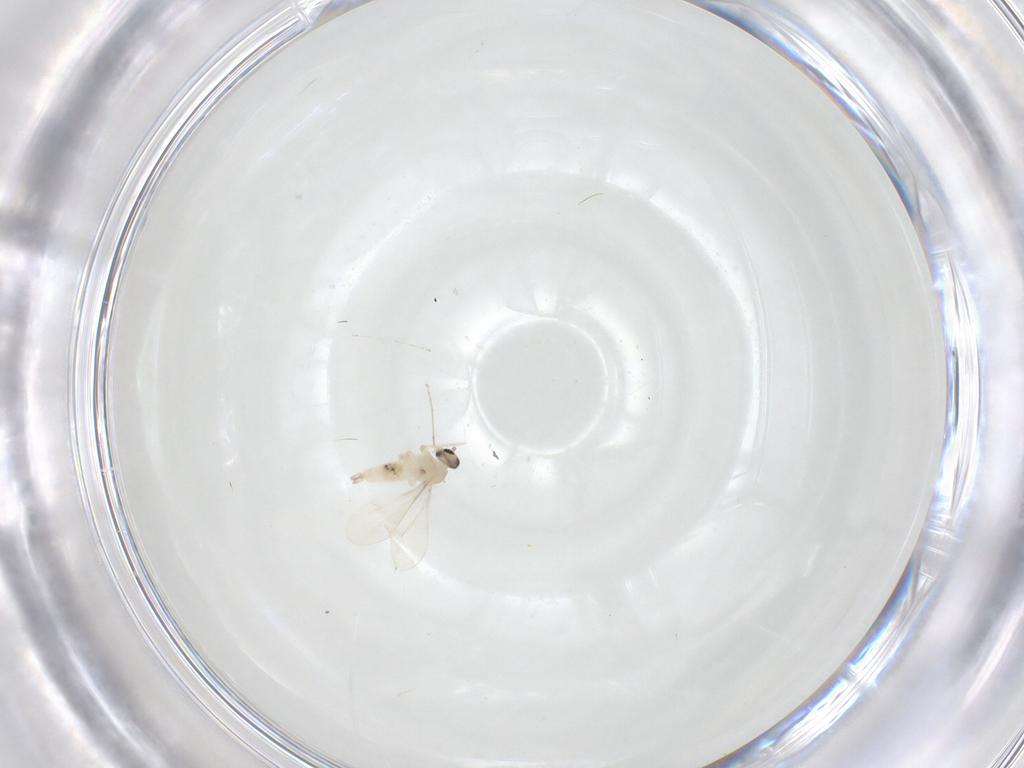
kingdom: Animalia
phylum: Arthropoda
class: Insecta
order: Diptera
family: Cecidomyiidae
